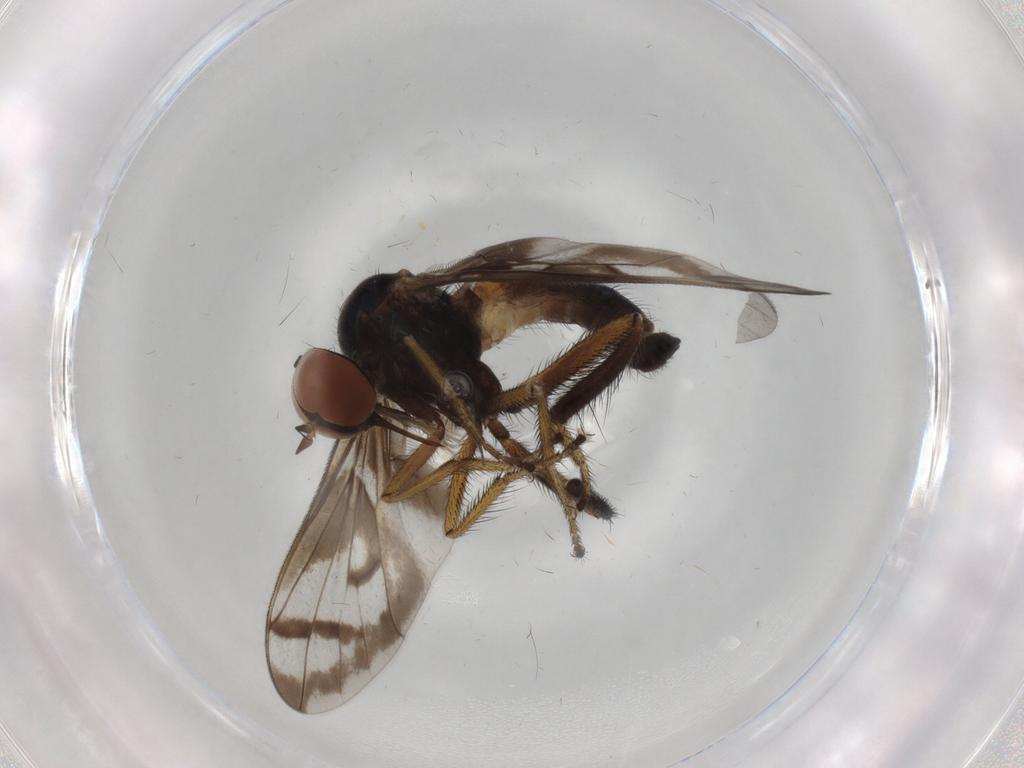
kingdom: Animalia
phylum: Arthropoda
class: Insecta
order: Diptera
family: Empididae
